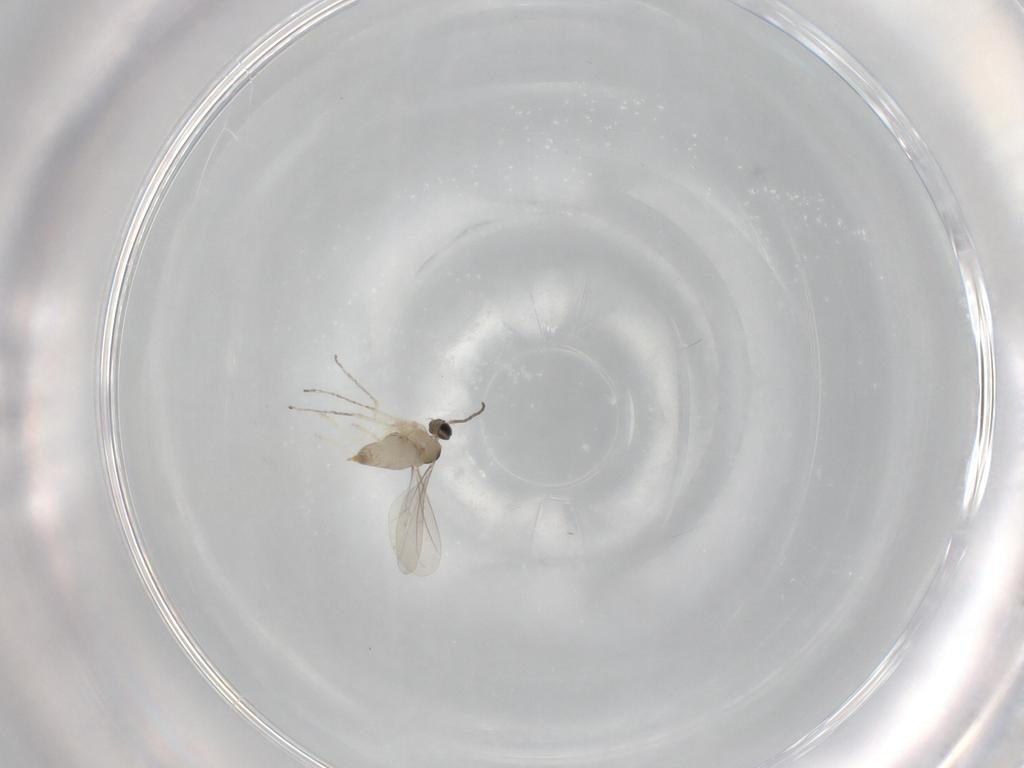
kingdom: Animalia
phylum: Arthropoda
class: Insecta
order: Diptera
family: Cecidomyiidae
